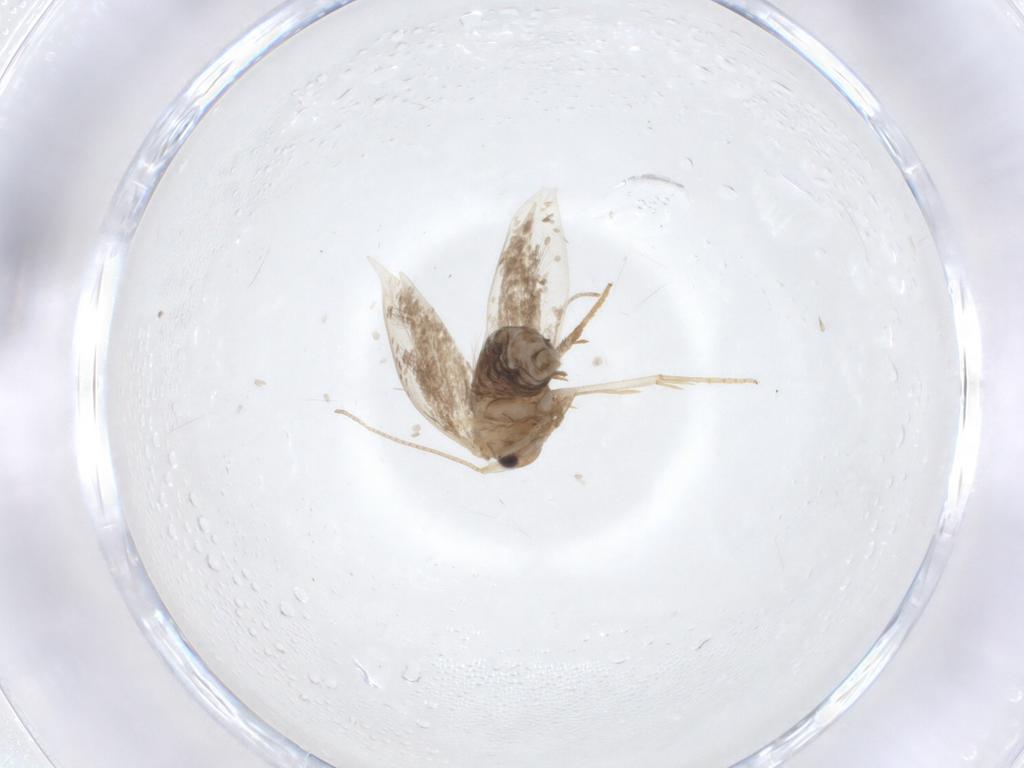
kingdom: Animalia
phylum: Arthropoda
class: Insecta
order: Lepidoptera
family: Bucculatricidae
